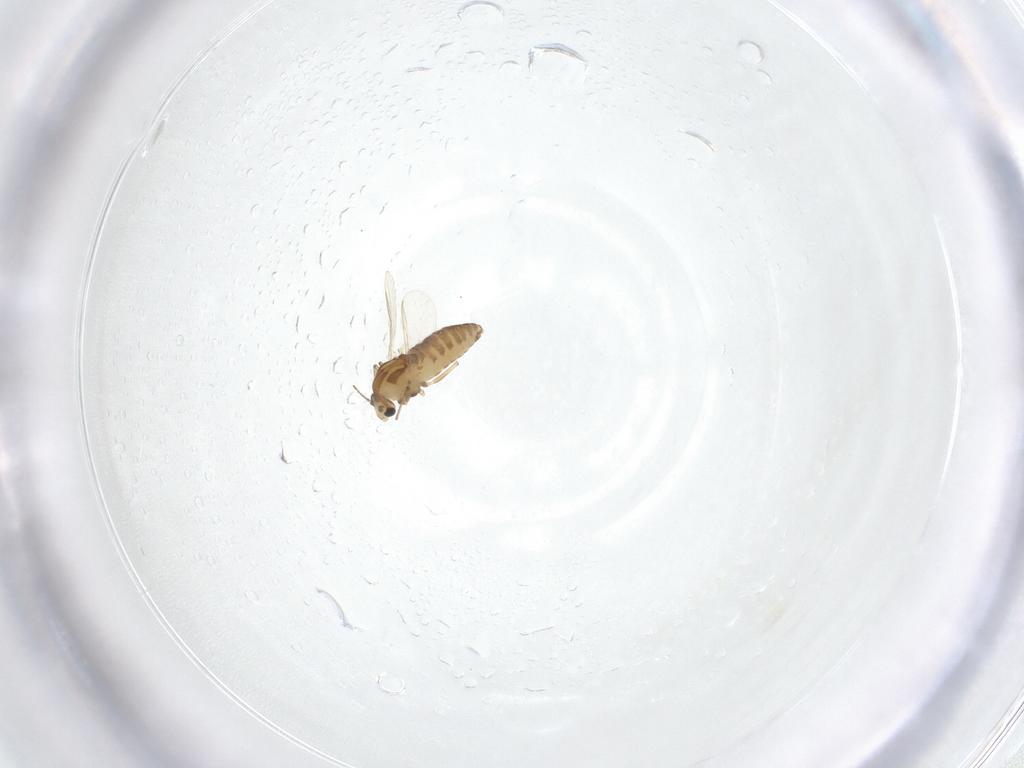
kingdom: Animalia
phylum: Arthropoda
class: Insecta
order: Diptera
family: Chironomidae
